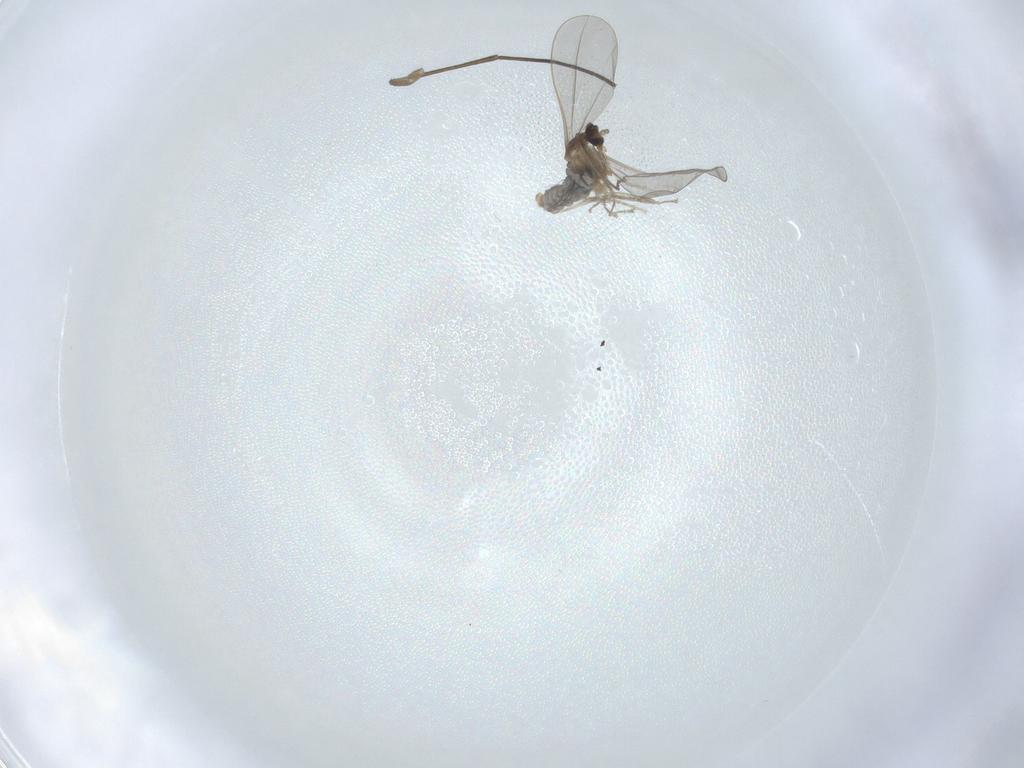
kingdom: Animalia
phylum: Arthropoda
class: Insecta
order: Diptera
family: Cecidomyiidae
